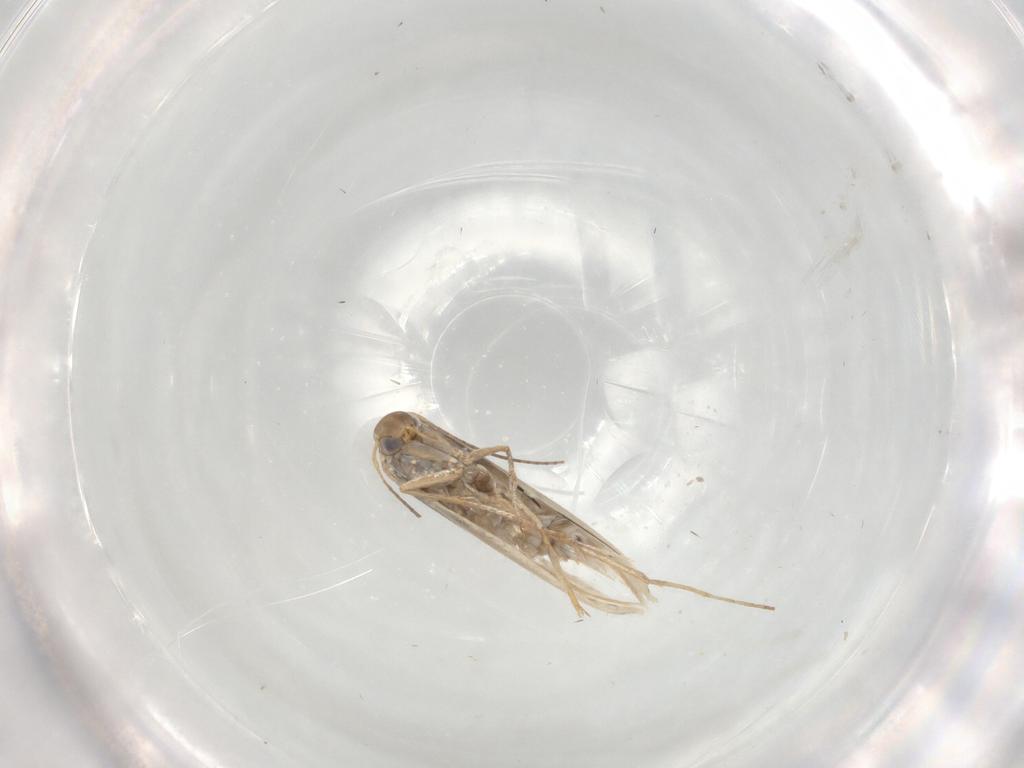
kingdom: Animalia
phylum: Arthropoda
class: Insecta
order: Lepidoptera
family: Gracillariidae
